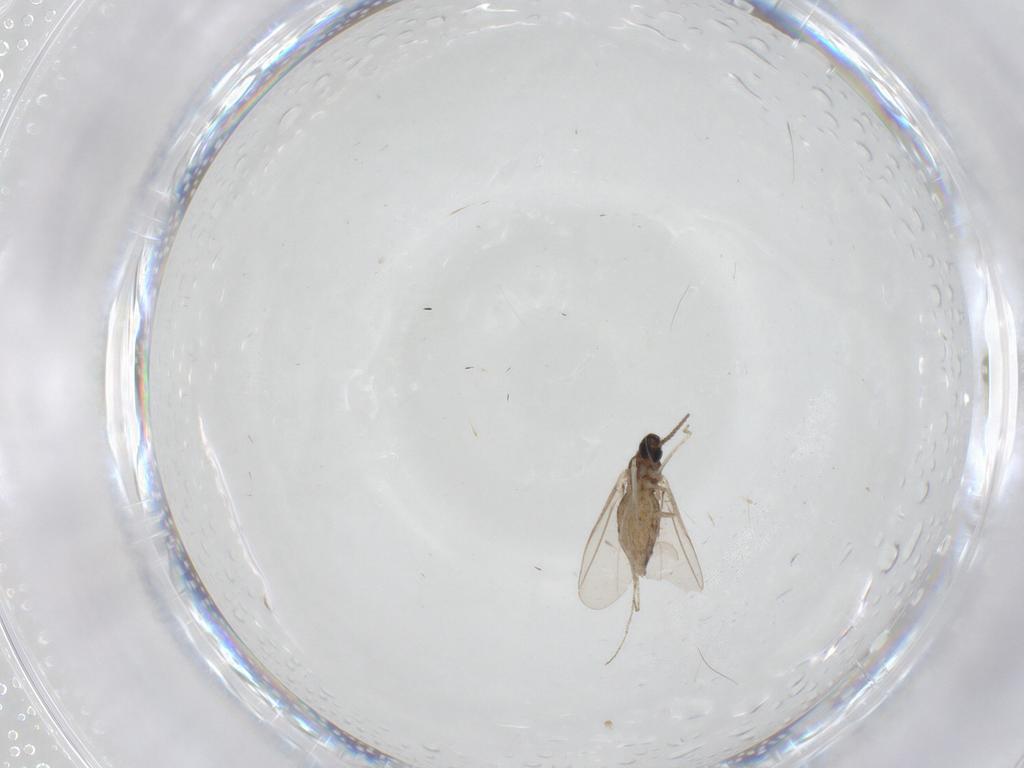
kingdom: Animalia
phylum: Arthropoda
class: Insecta
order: Diptera
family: Cecidomyiidae
